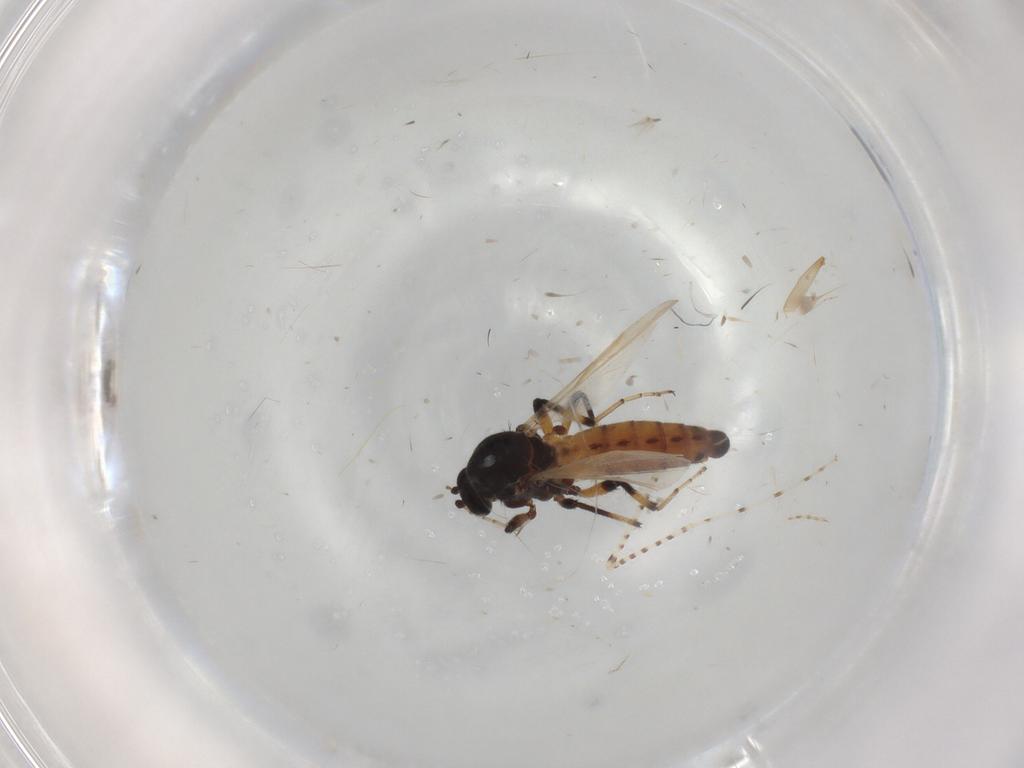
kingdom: Animalia
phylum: Arthropoda
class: Insecta
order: Diptera
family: Ceratopogonidae
